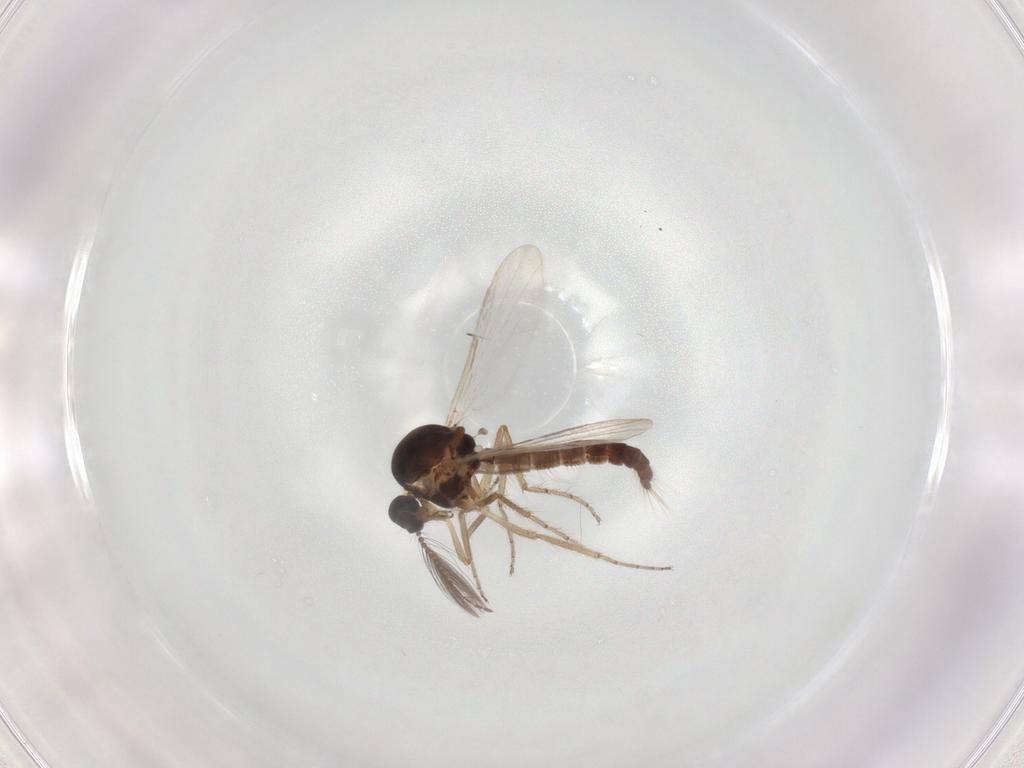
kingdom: Animalia
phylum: Arthropoda
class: Insecta
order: Diptera
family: Ceratopogonidae
